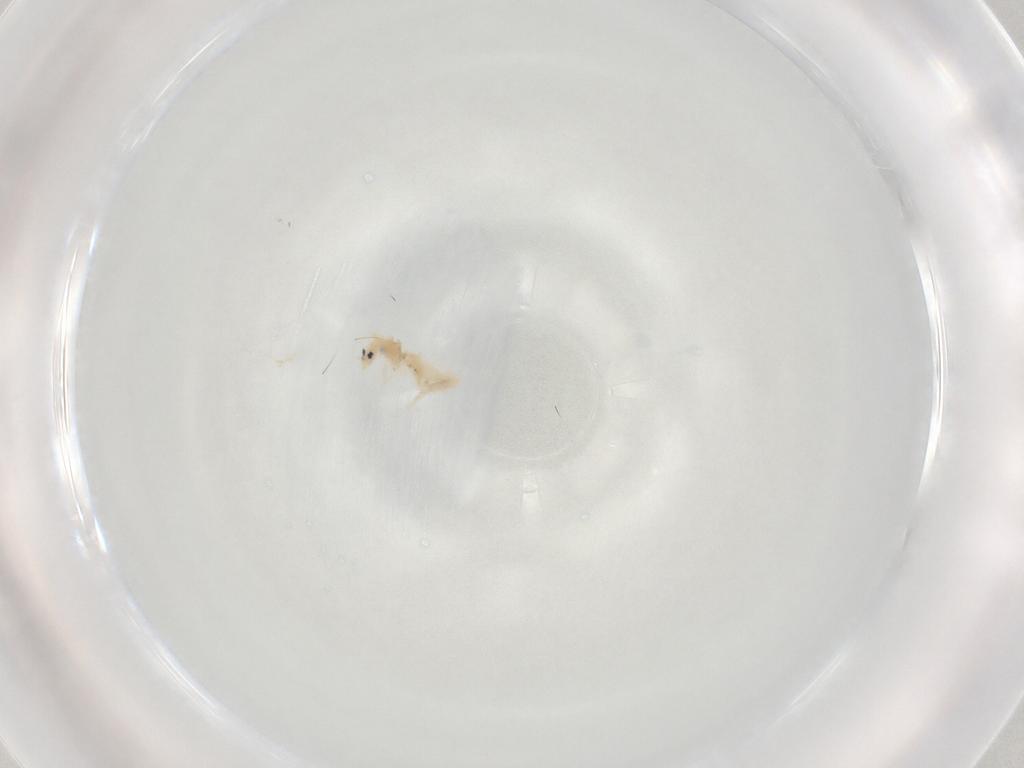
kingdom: Animalia
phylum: Arthropoda
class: Collembola
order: Entomobryomorpha
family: Entomobryidae
